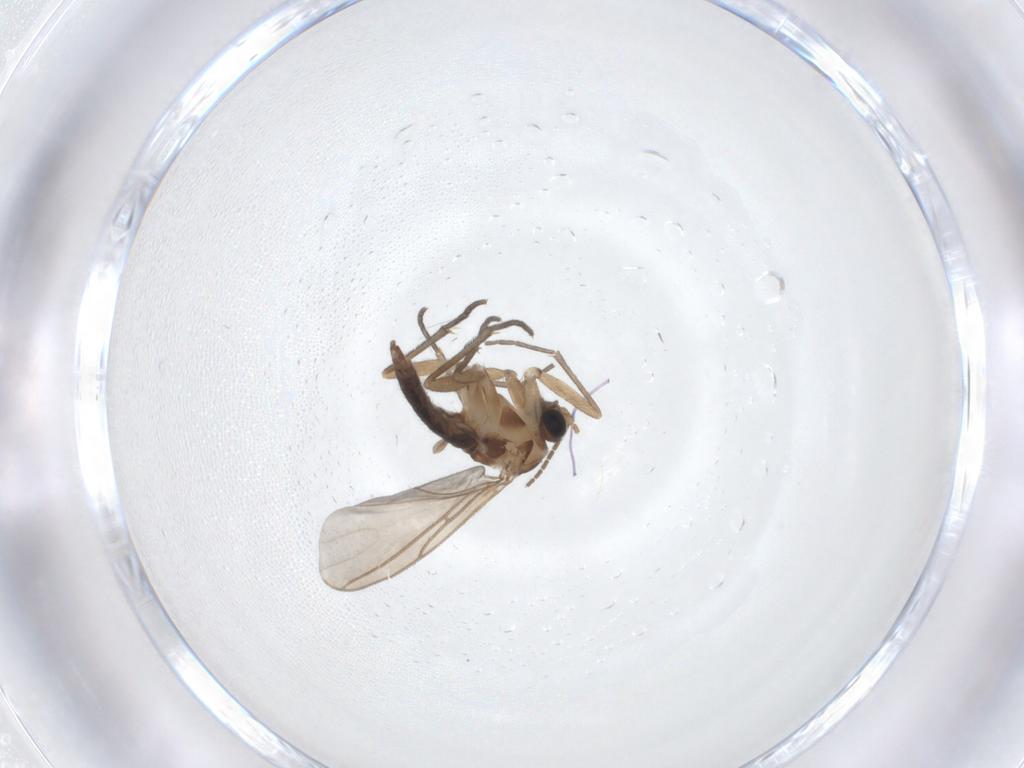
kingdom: Animalia
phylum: Arthropoda
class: Insecta
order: Diptera
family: Sciaridae
